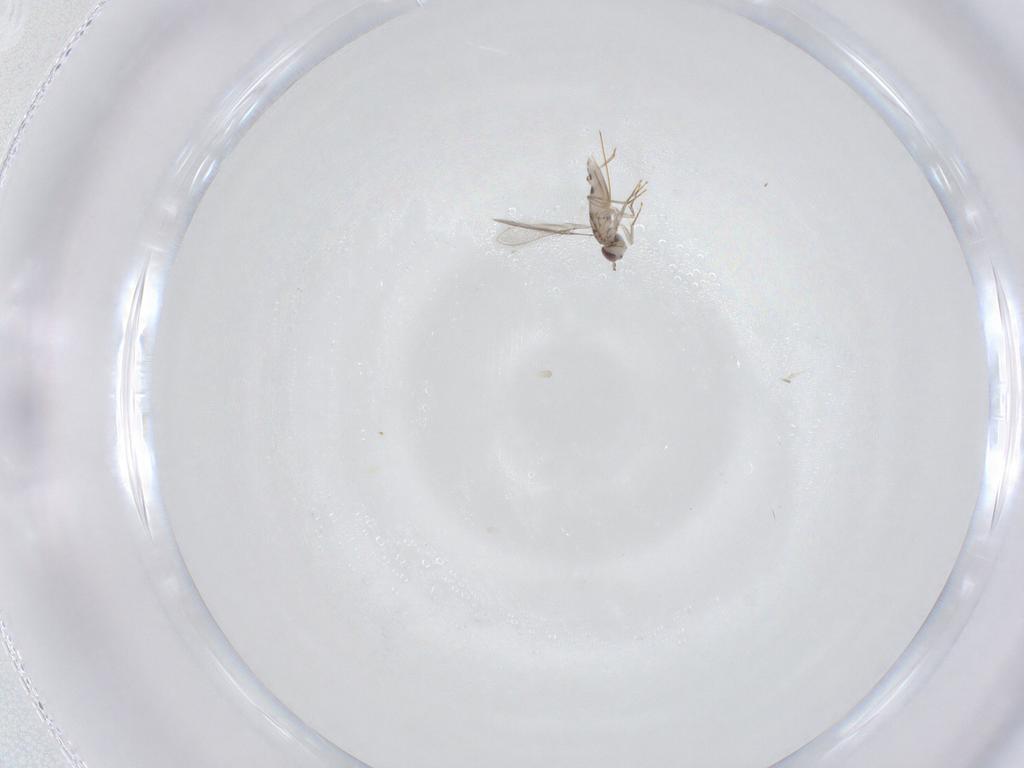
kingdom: Animalia
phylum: Arthropoda
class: Insecta
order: Hymenoptera
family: Mymaridae
